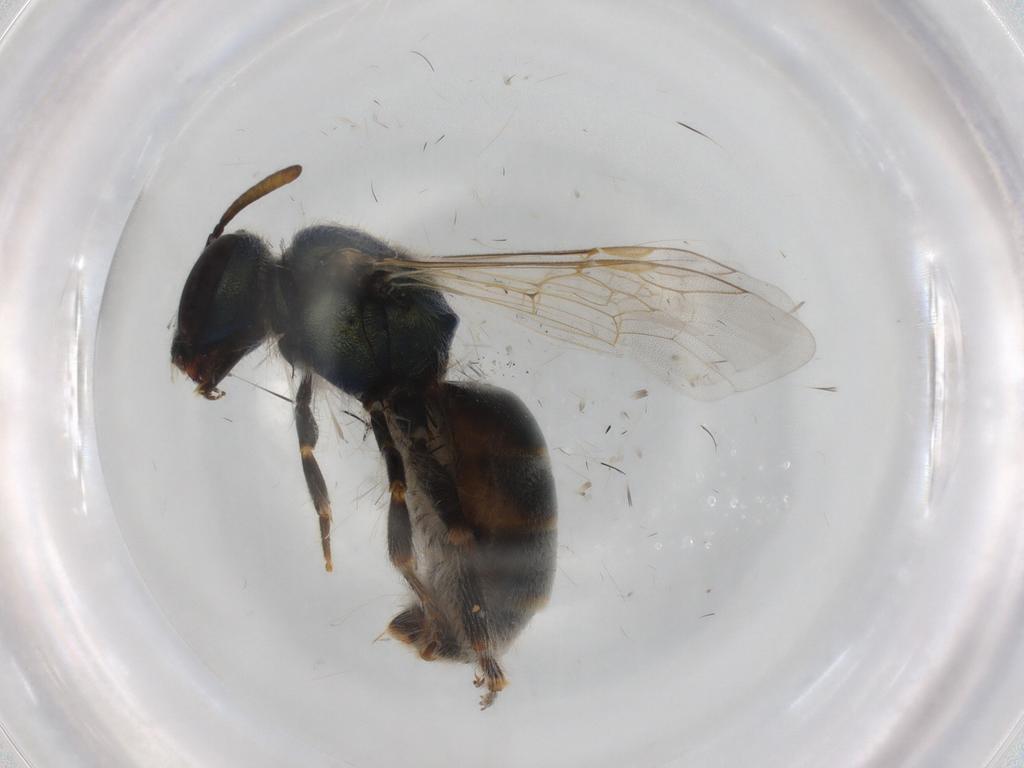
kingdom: Animalia
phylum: Arthropoda
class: Insecta
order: Hymenoptera
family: Halictidae
